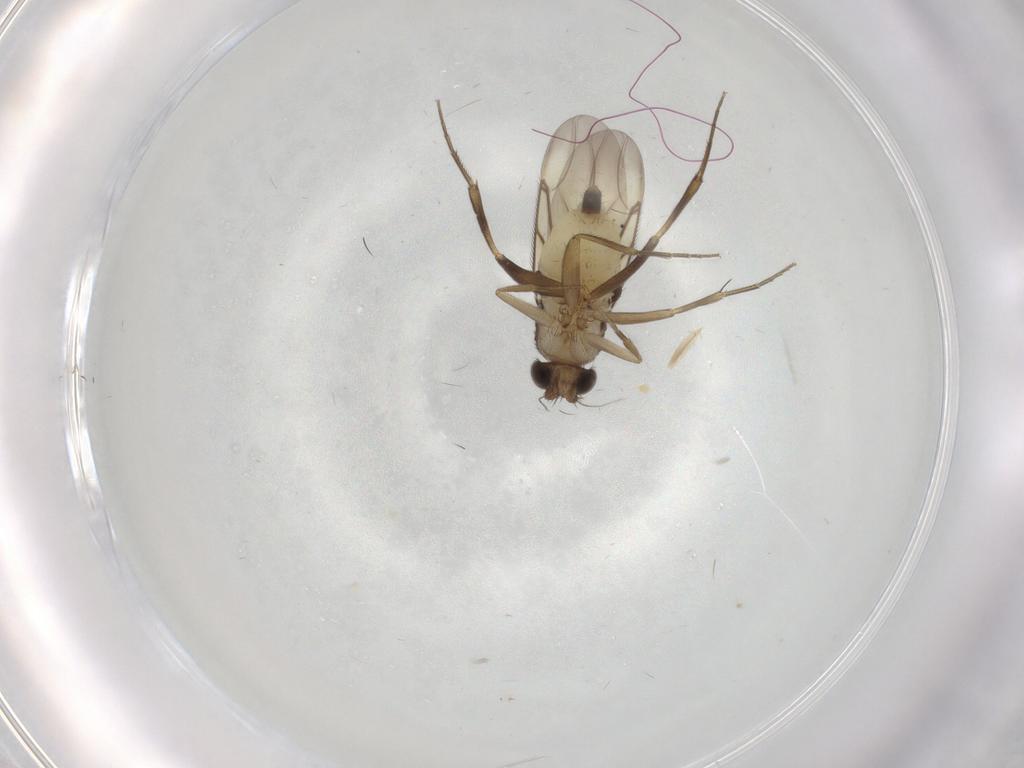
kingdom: Animalia
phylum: Arthropoda
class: Insecta
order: Diptera
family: Phoridae
